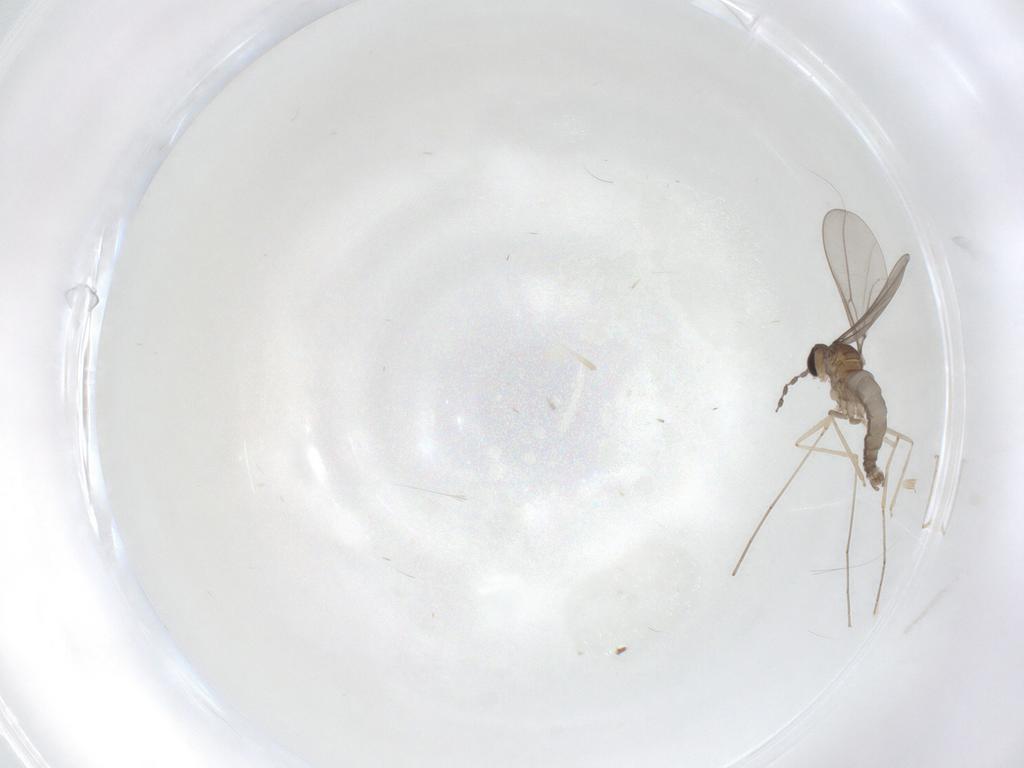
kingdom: Animalia
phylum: Arthropoda
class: Insecta
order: Diptera
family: Cecidomyiidae
